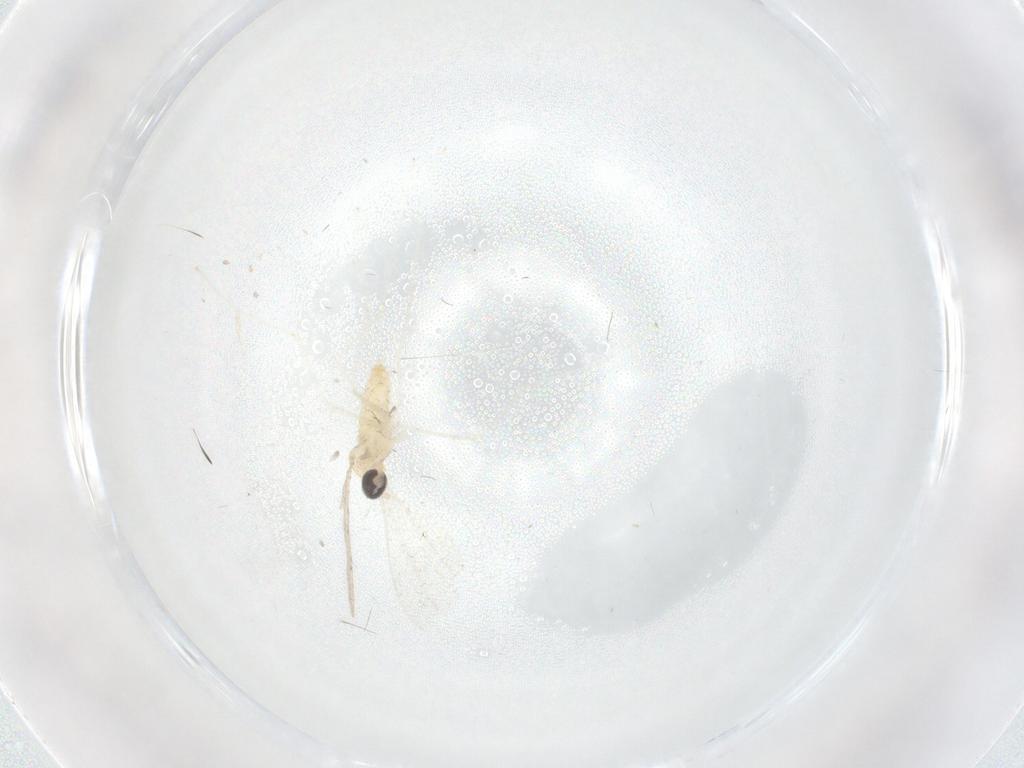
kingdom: Animalia
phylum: Arthropoda
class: Insecta
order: Diptera
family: Cecidomyiidae
